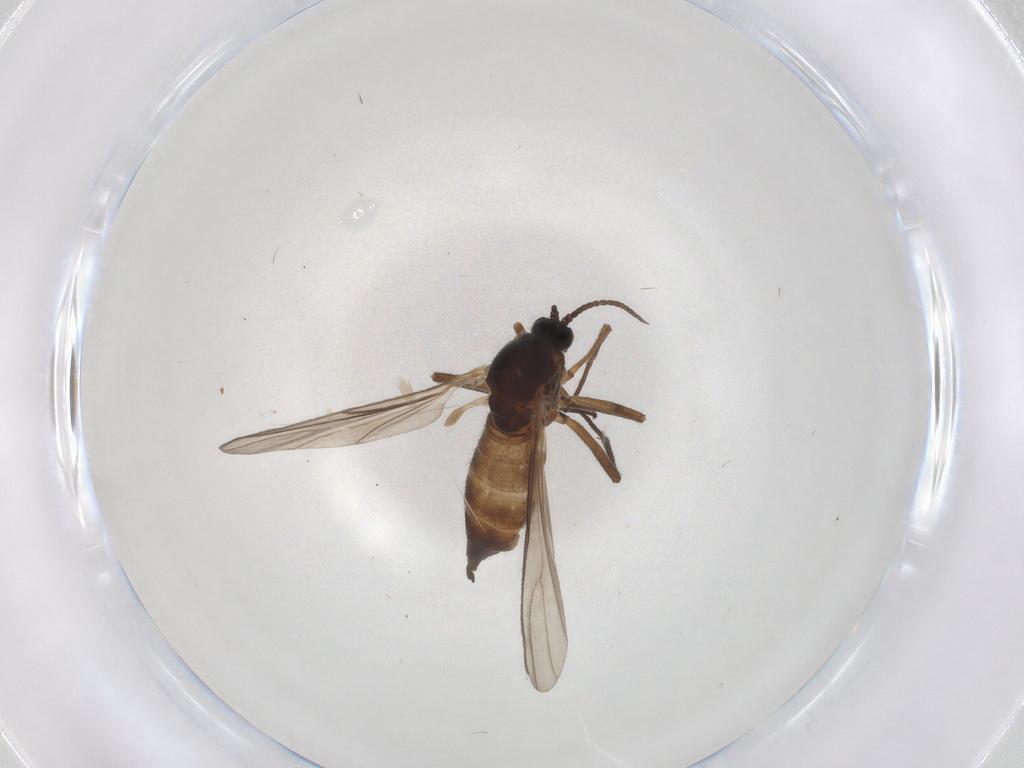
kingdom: Animalia
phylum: Arthropoda
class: Insecta
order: Diptera
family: Sciaridae
